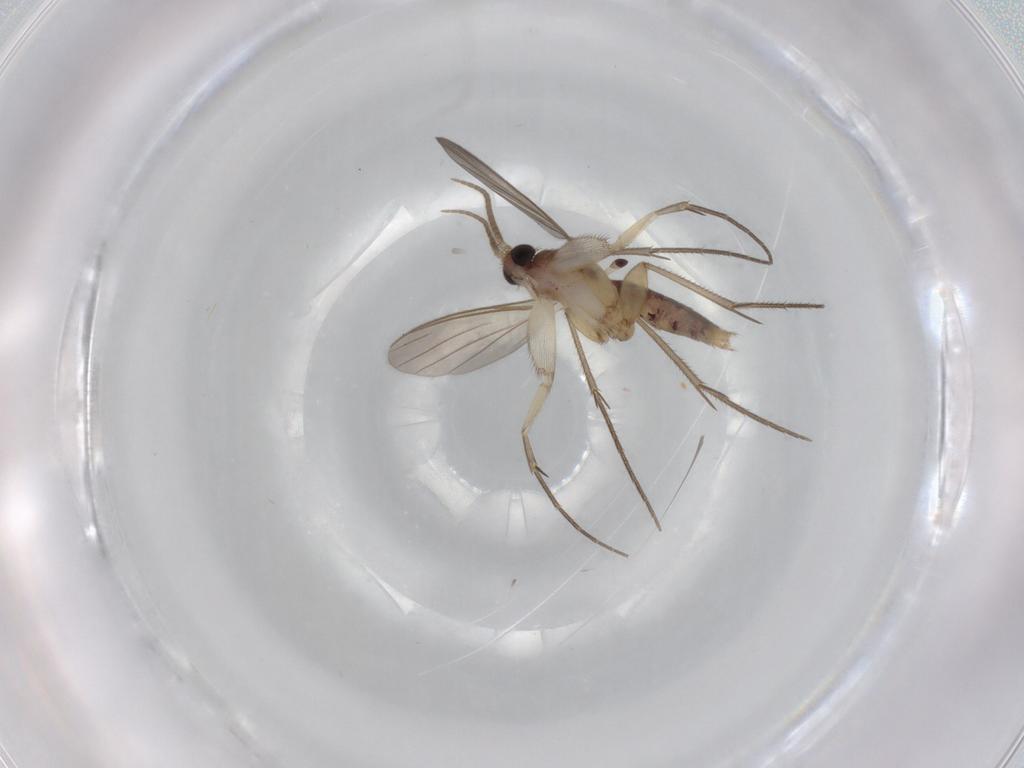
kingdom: Animalia
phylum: Arthropoda
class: Insecta
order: Diptera
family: Mycetophilidae
